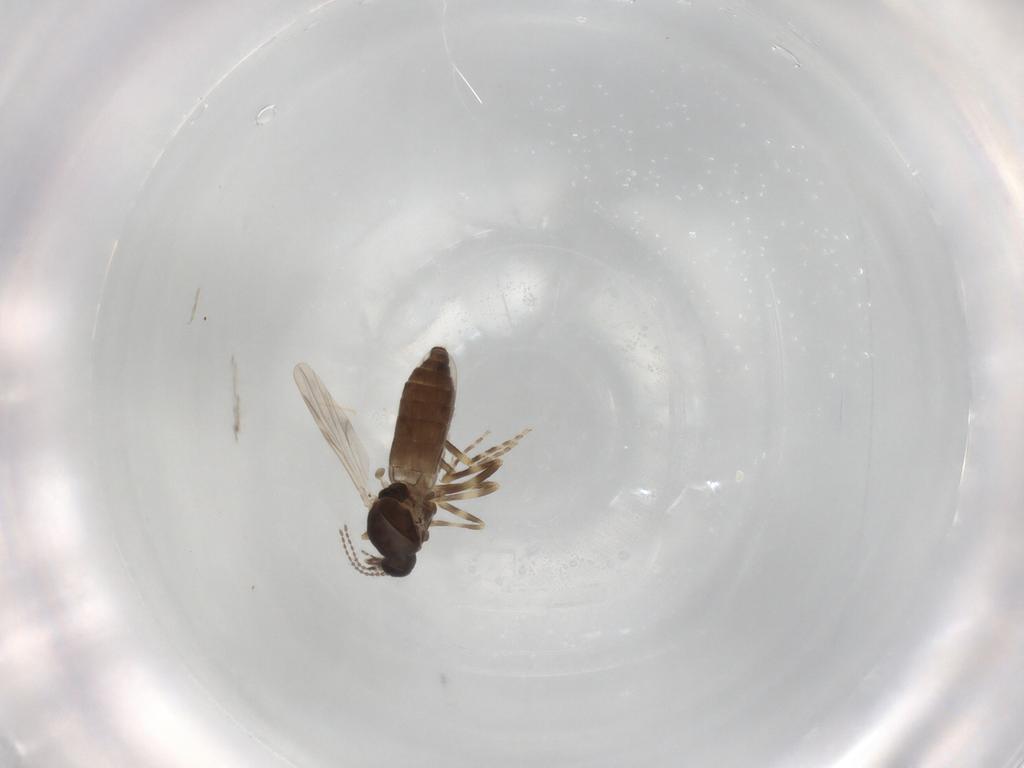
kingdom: Animalia
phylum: Arthropoda
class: Insecta
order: Diptera
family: Ceratopogonidae
